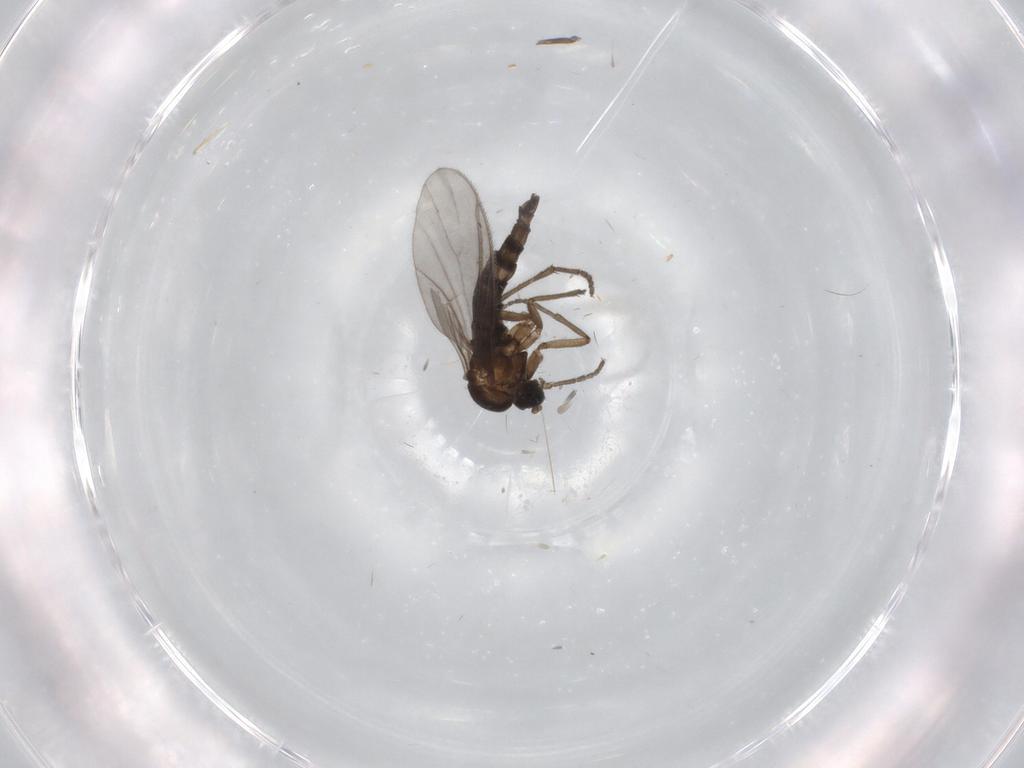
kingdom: Animalia
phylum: Arthropoda
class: Insecta
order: Diptera
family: Sciaridae
